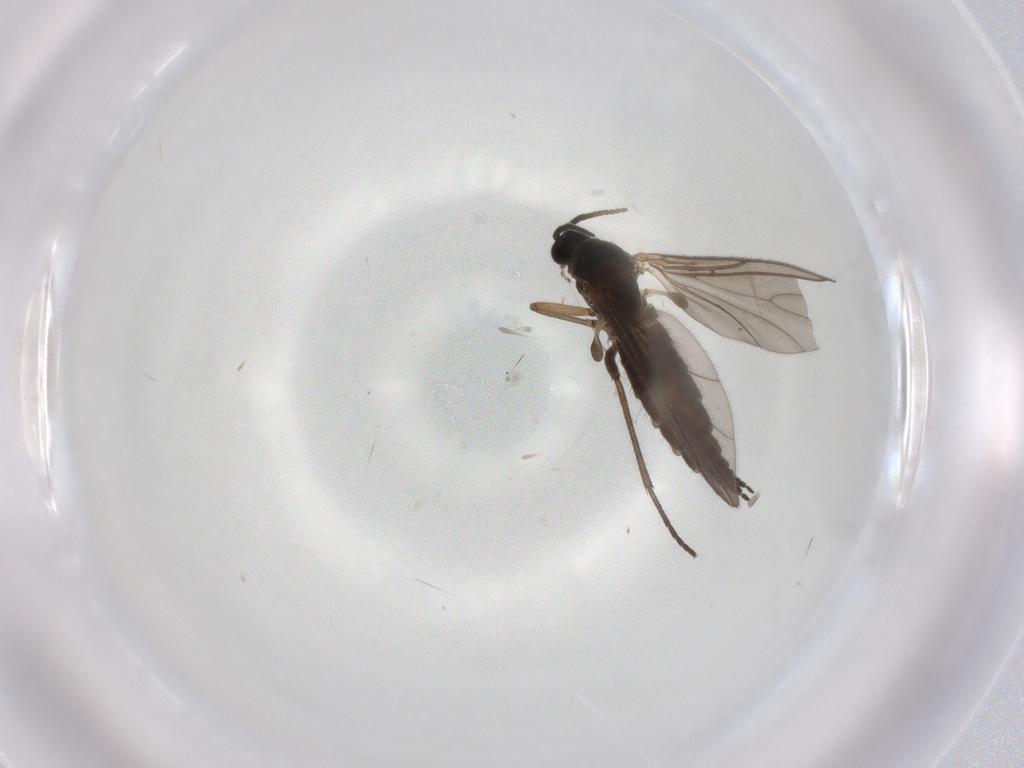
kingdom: Animalia
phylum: Arthropoda
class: Insecta
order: Diptera
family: Sciaridae
